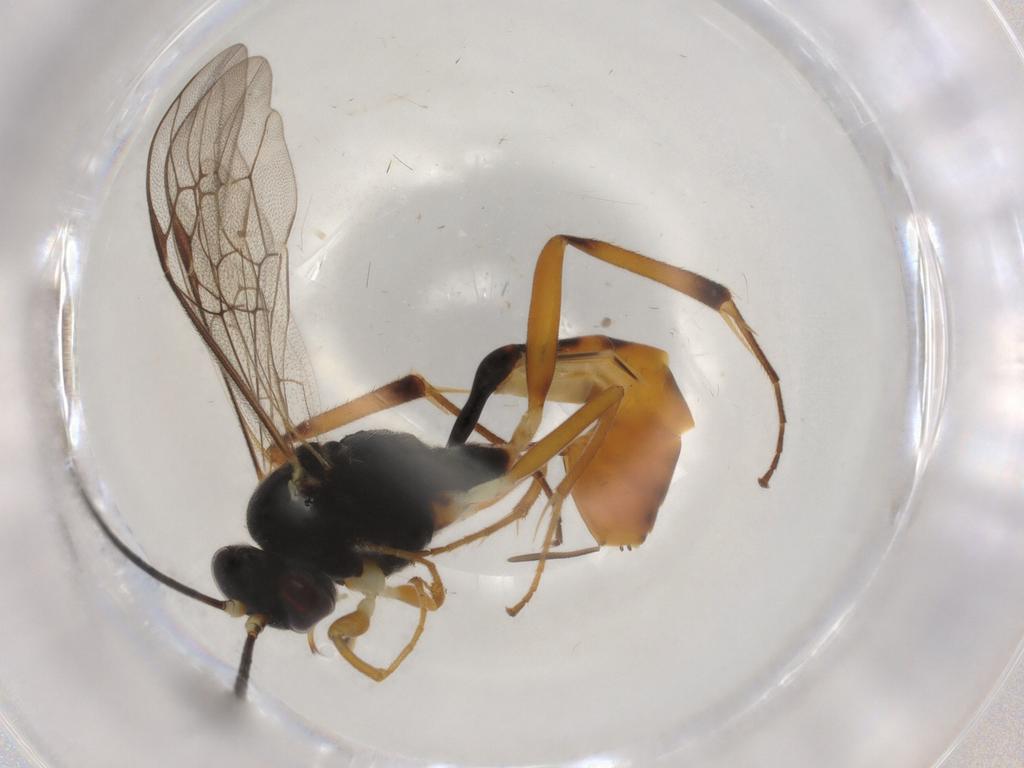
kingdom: Animalia
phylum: Arthropoda
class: Insecta
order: Hymenoptera
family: Ichneumonidae
